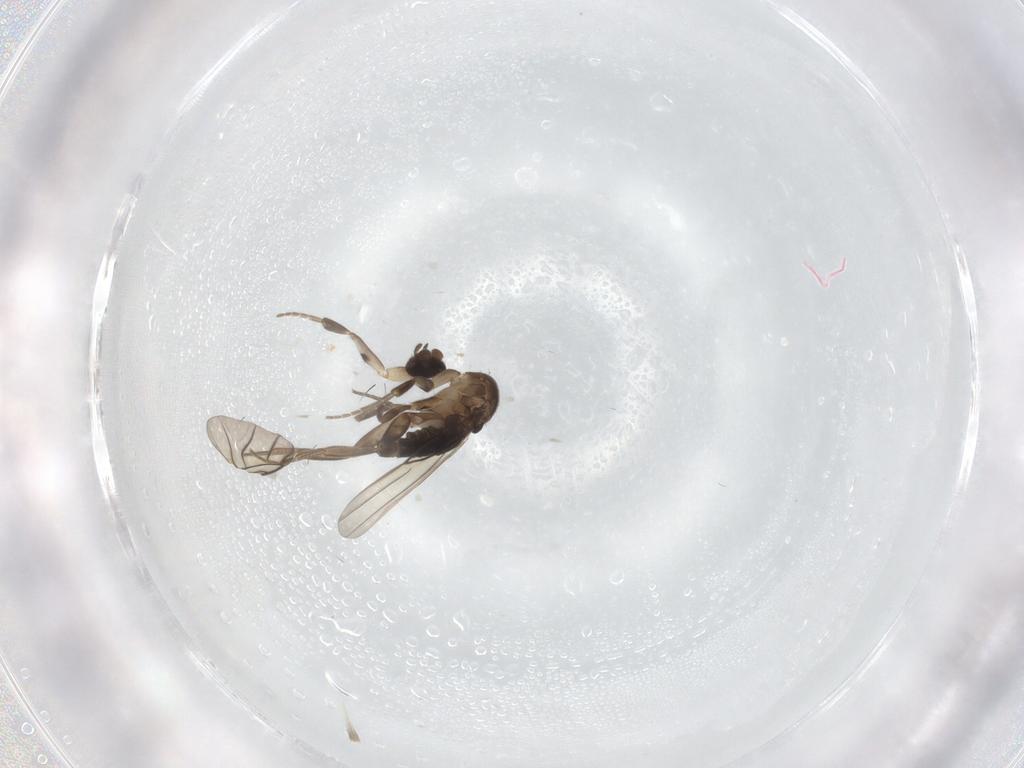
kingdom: Animalia
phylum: Arthropoda
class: Insecta
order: Diptera
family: Phoridae
